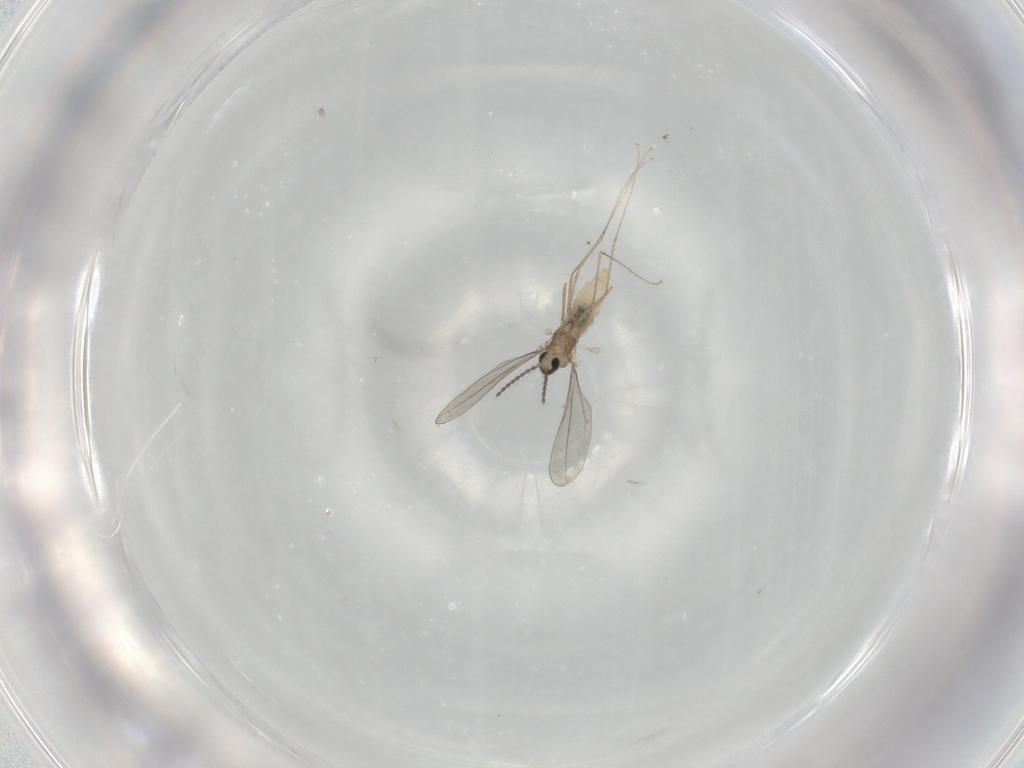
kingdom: Animalia
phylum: Arthropoda
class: Insecta
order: Diptera
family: Cecidomyiidae
